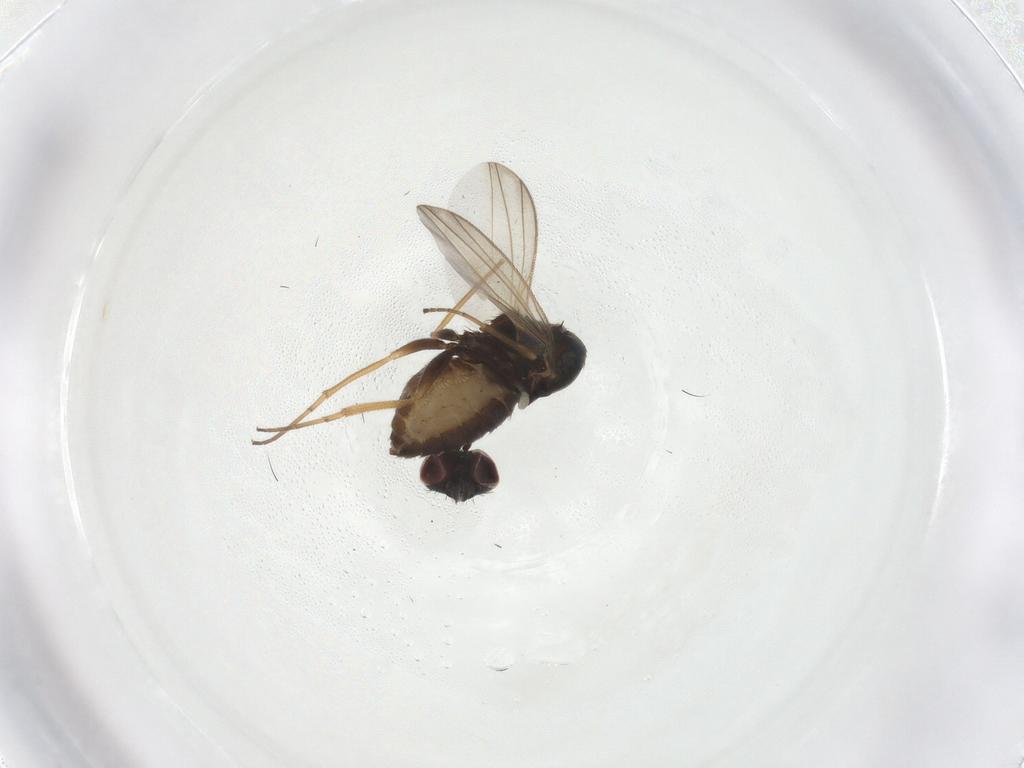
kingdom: Animalia
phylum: Arthropoda
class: Insecta
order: Diptera
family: Dolichopodidae
